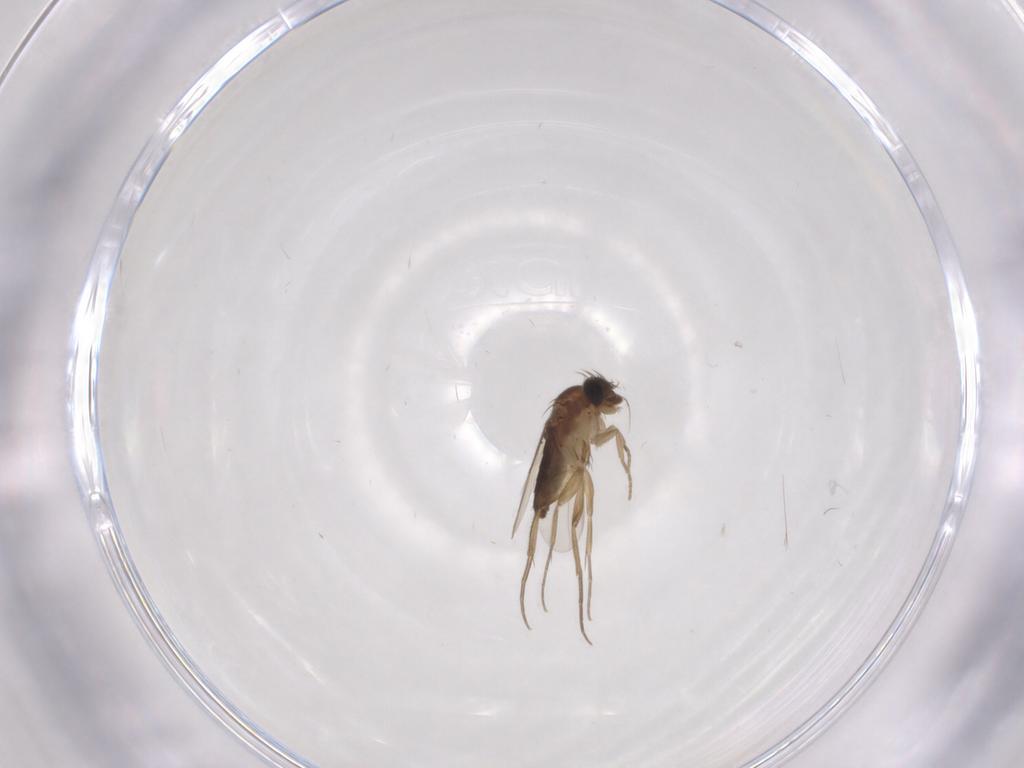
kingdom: Animalia
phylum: Arthropoda
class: Insecta
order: Diptera
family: Phoridae
